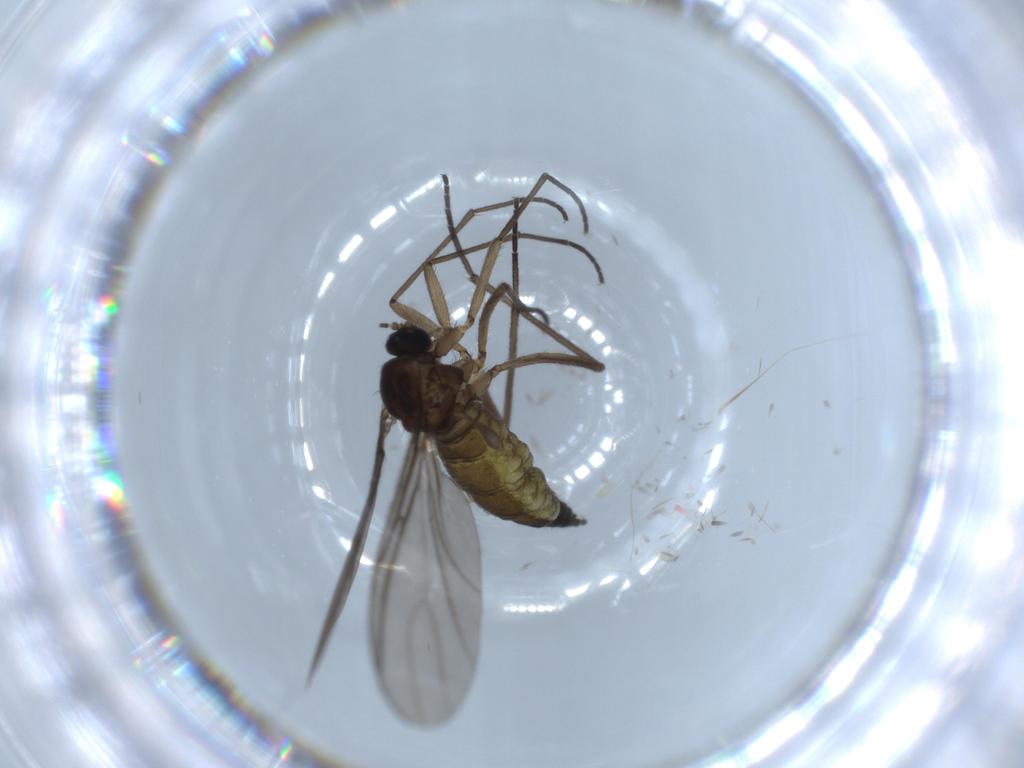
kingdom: Animalia
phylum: Arthropoda
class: Insecta
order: Diptera
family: Sciaridae
